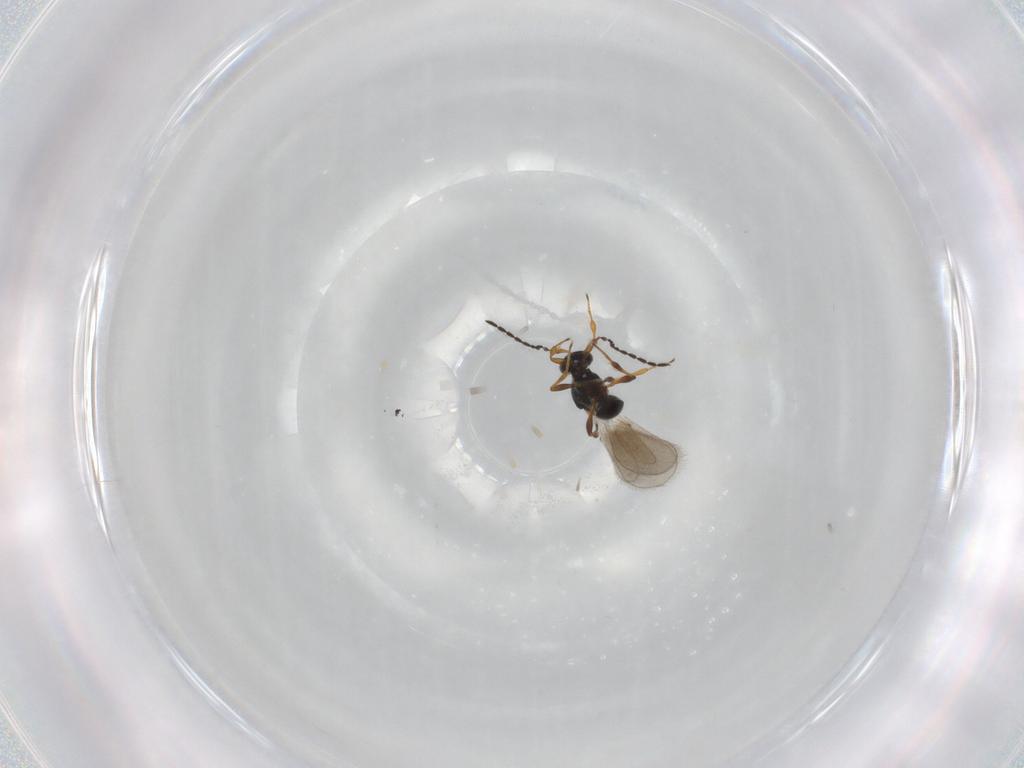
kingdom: Animalia
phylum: Arthropoda
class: Insecta
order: Hymenoptera
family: Platygastridae
